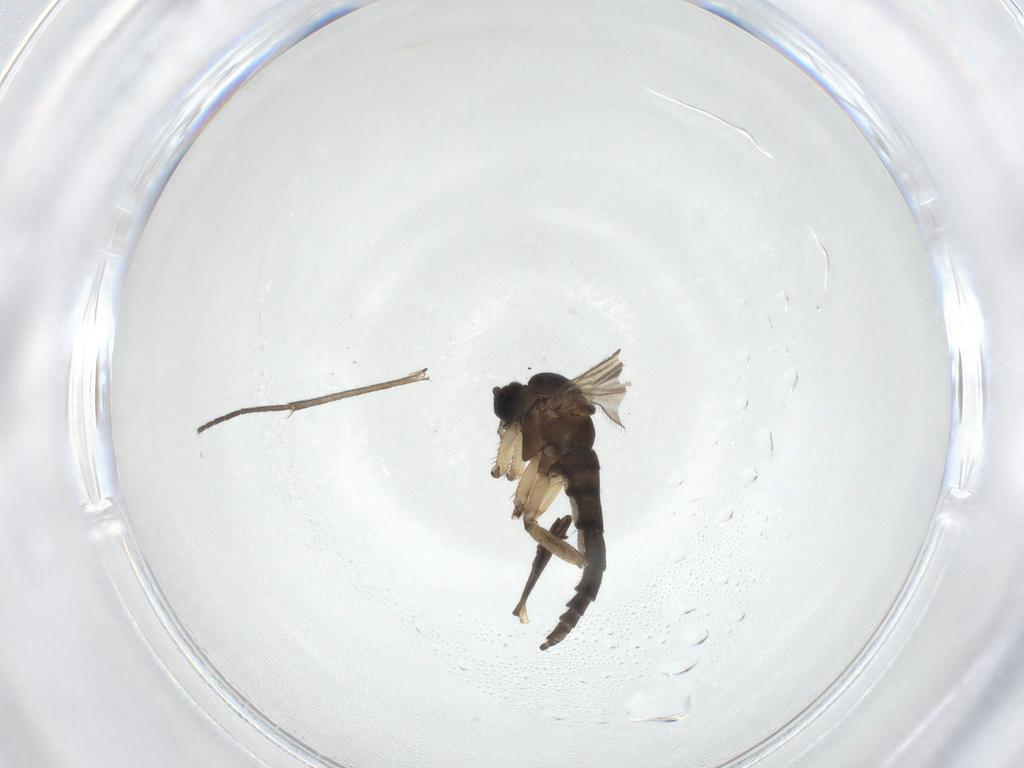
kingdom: Animalia
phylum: Arthropoda
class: Insecta
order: Diptera
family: Sciaridae
